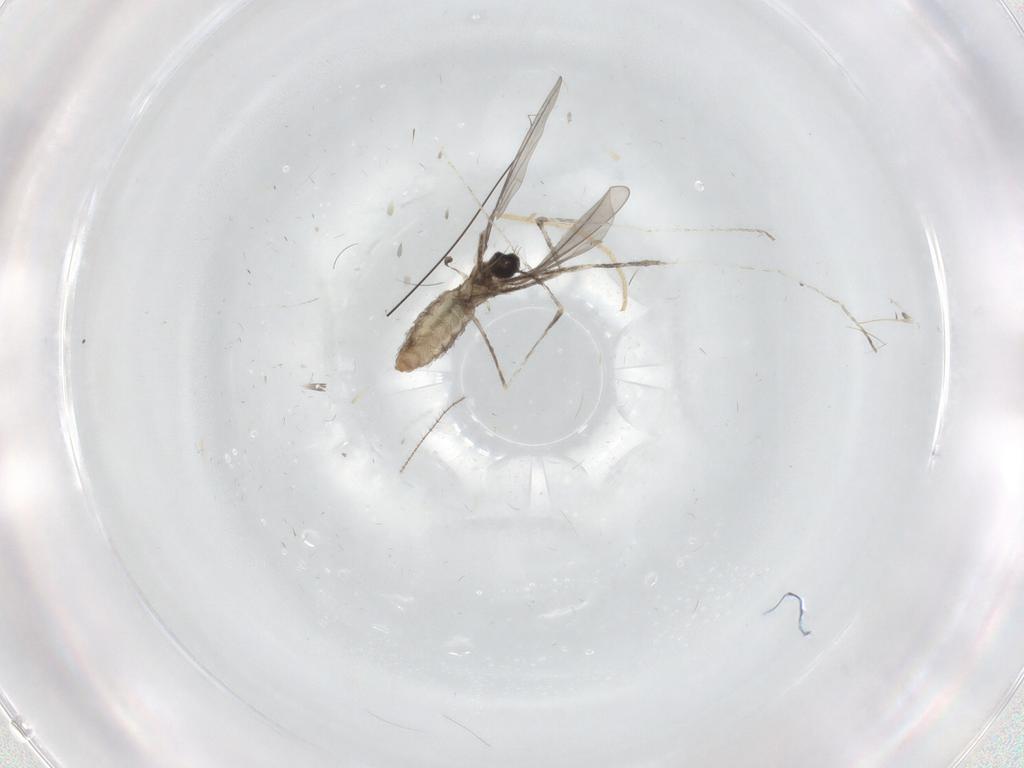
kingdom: Animalia
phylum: Arthropoda
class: Insecta
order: Diptera
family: Cecidomyiidae
